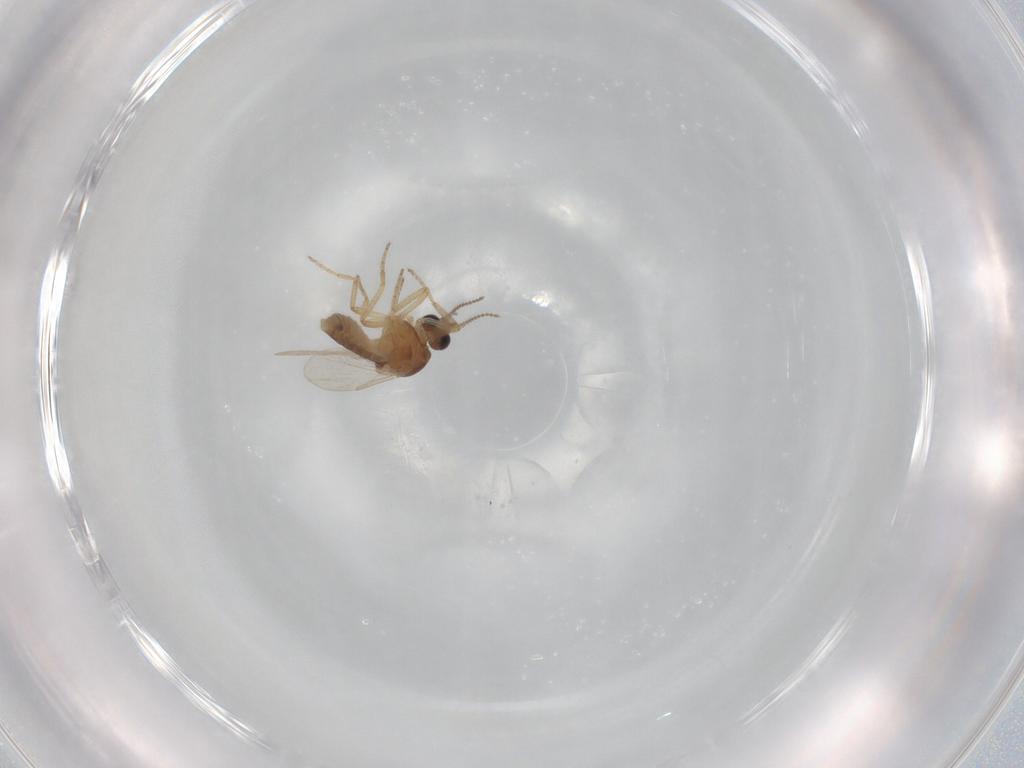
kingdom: Animalia
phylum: Arthropoda
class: Insecta
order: Diptera
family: Ceratopogonidae
